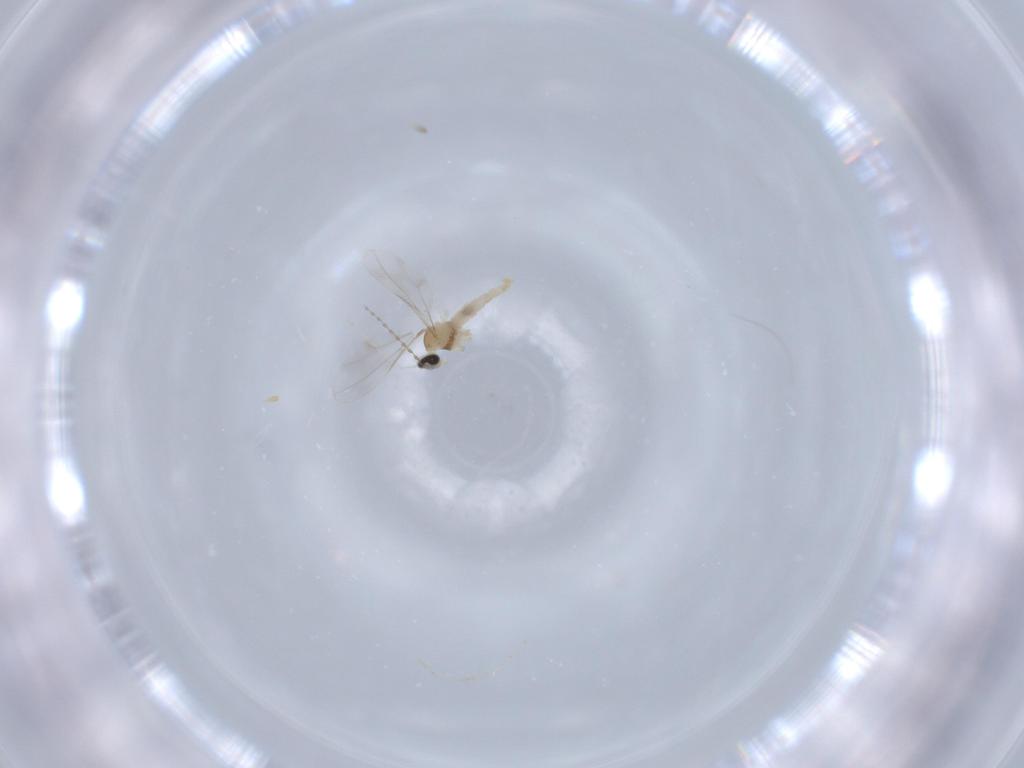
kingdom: Animalia
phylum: Arthropoda
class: Insecta
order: Diptera
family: Cecidomyiidae
